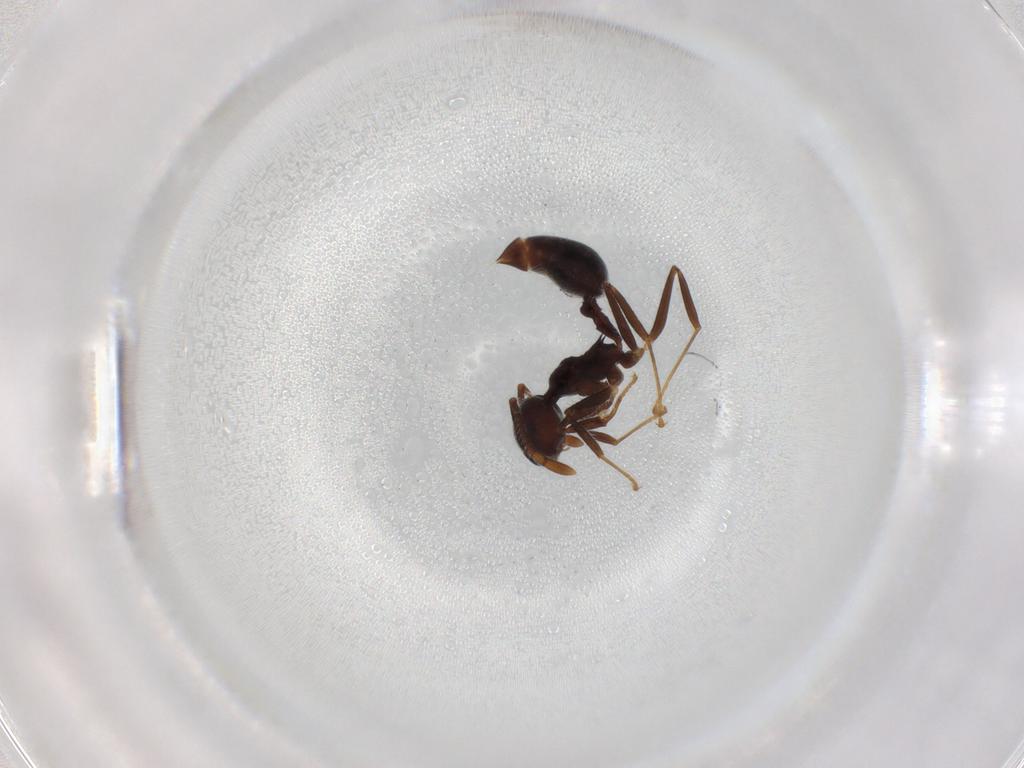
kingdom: Animalia
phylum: Arthropoda
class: Insecta
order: Hymenoptera
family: Formicidae
